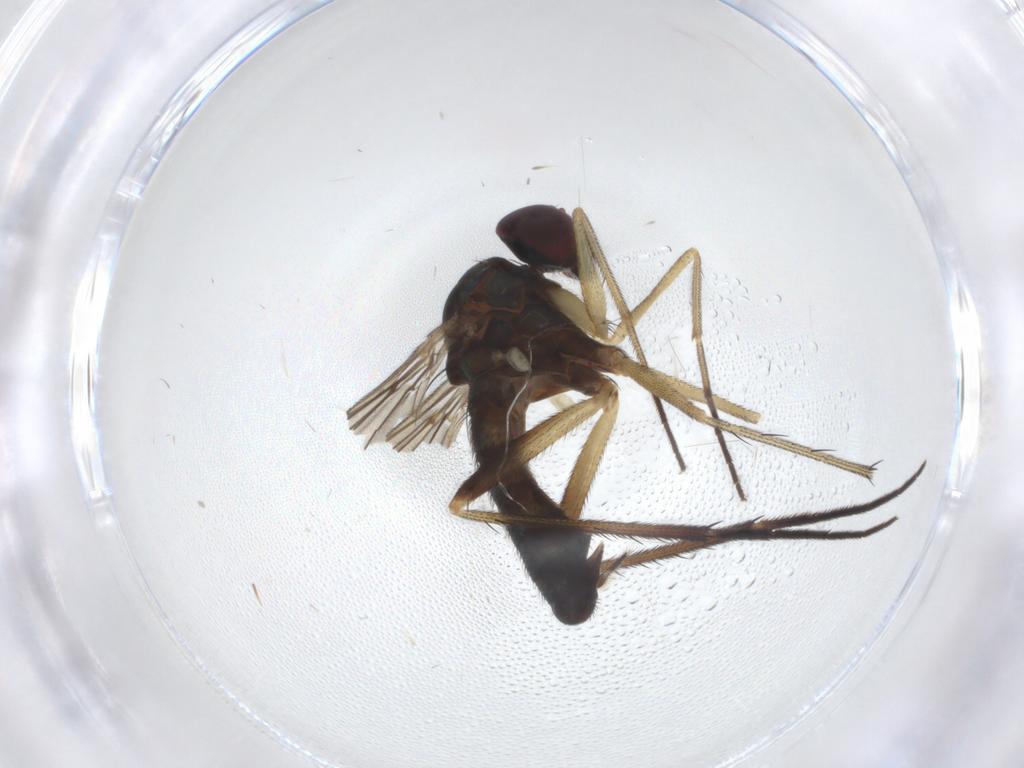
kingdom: Animalia
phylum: Arthropoda
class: Insecta
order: Diptera
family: Dolichopodidae
